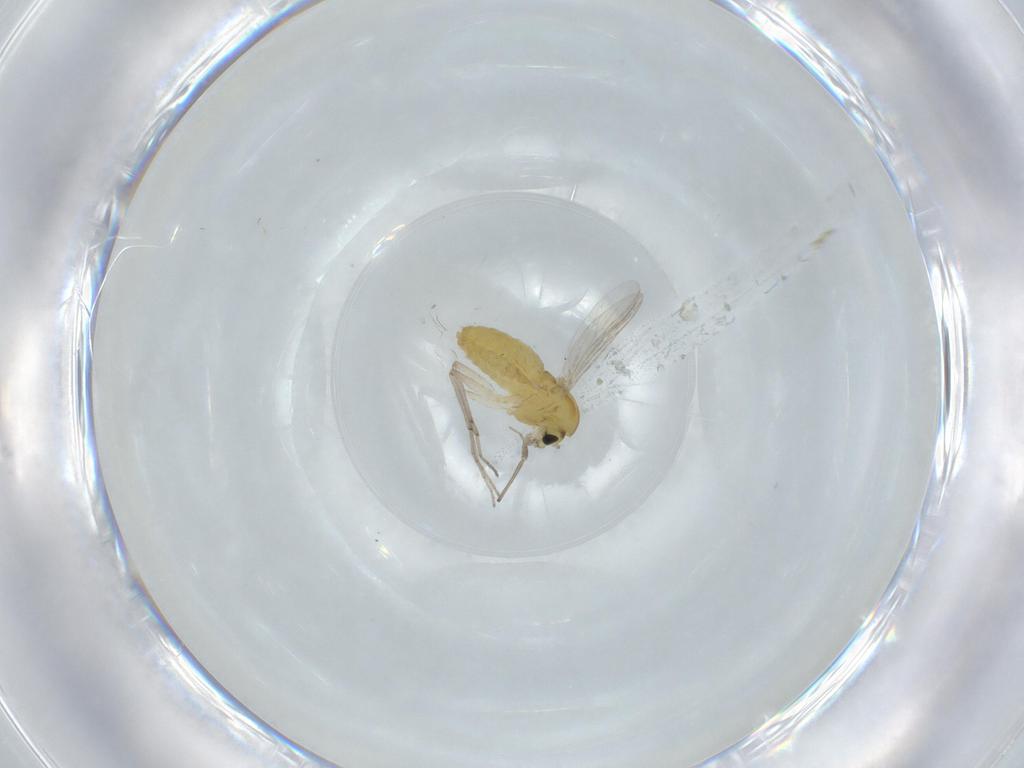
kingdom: Animalia
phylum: Arthropoda
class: Insecta
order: Diptera
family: Chironomidae
